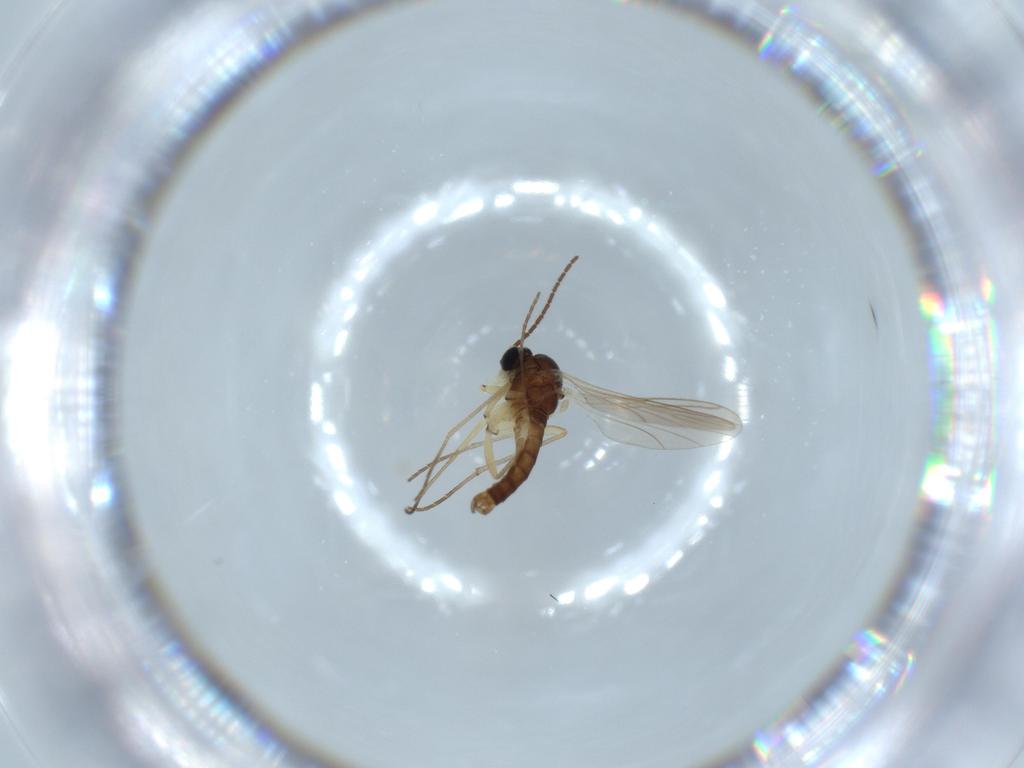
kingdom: Animalia
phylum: Arthropoda
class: Insecta
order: Diptera
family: Sciaridae
